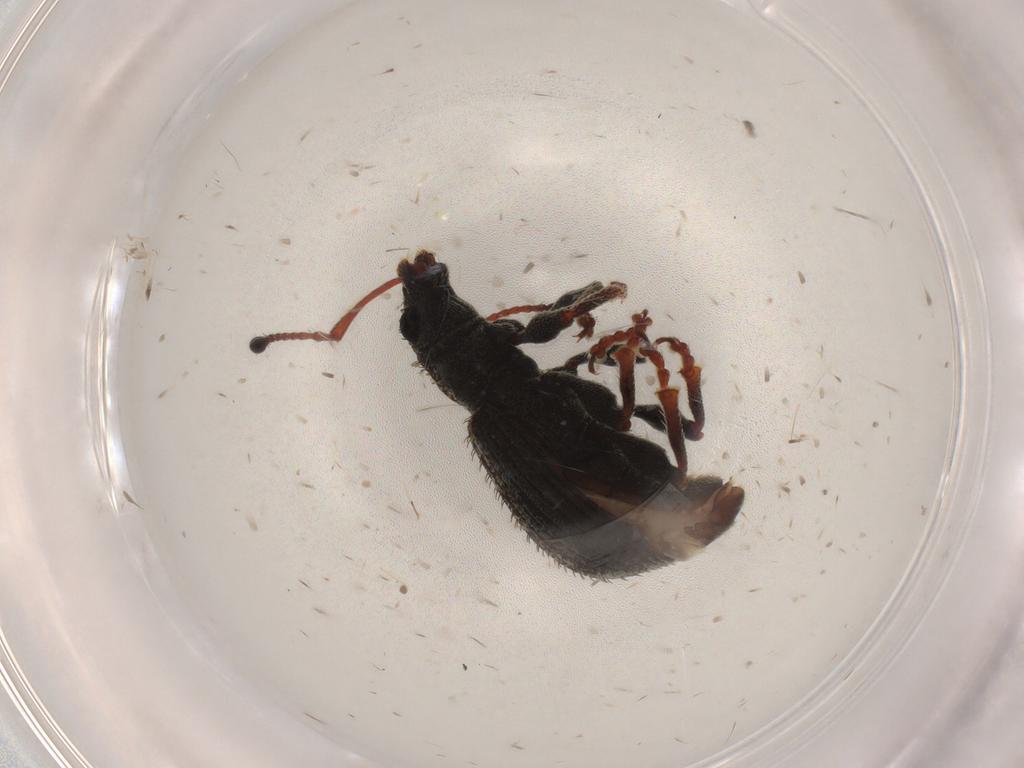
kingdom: Animalia
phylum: Arthropoda
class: Insecta
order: Coleoptera
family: Curculionidae
